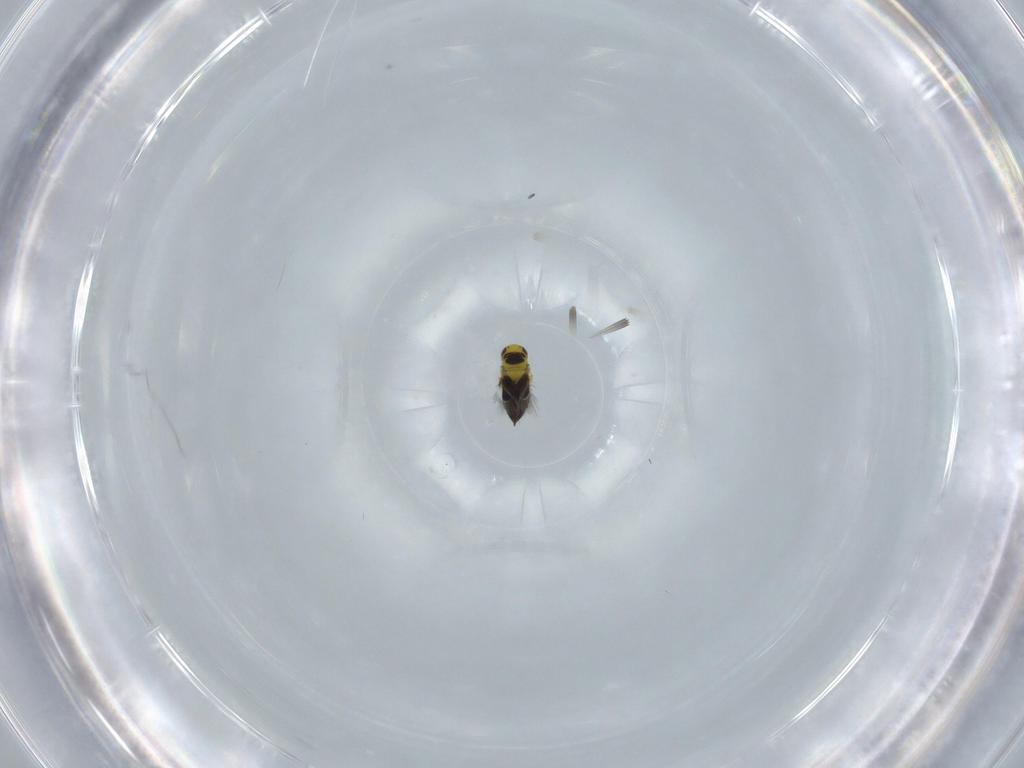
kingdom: Animalia
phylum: Arthropoda
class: Insecta
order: Hymenoptera
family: Signiphoridae
